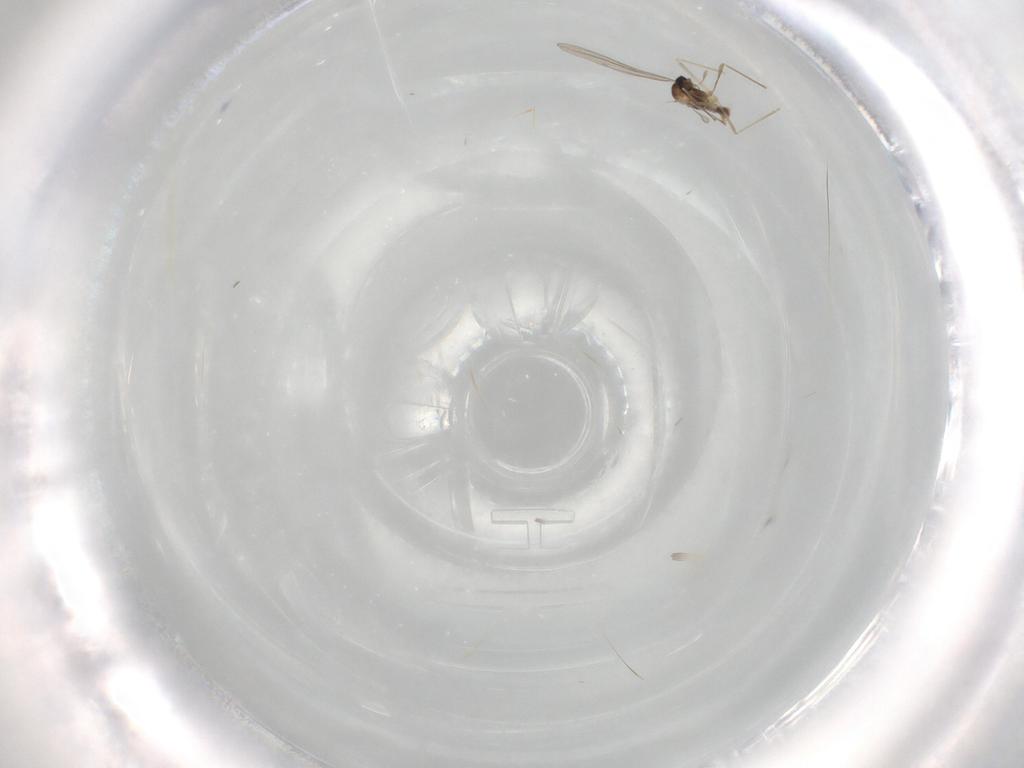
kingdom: Animalia
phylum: Arthropoda
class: Insecta
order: Diptera
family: Cecidomyiidae
